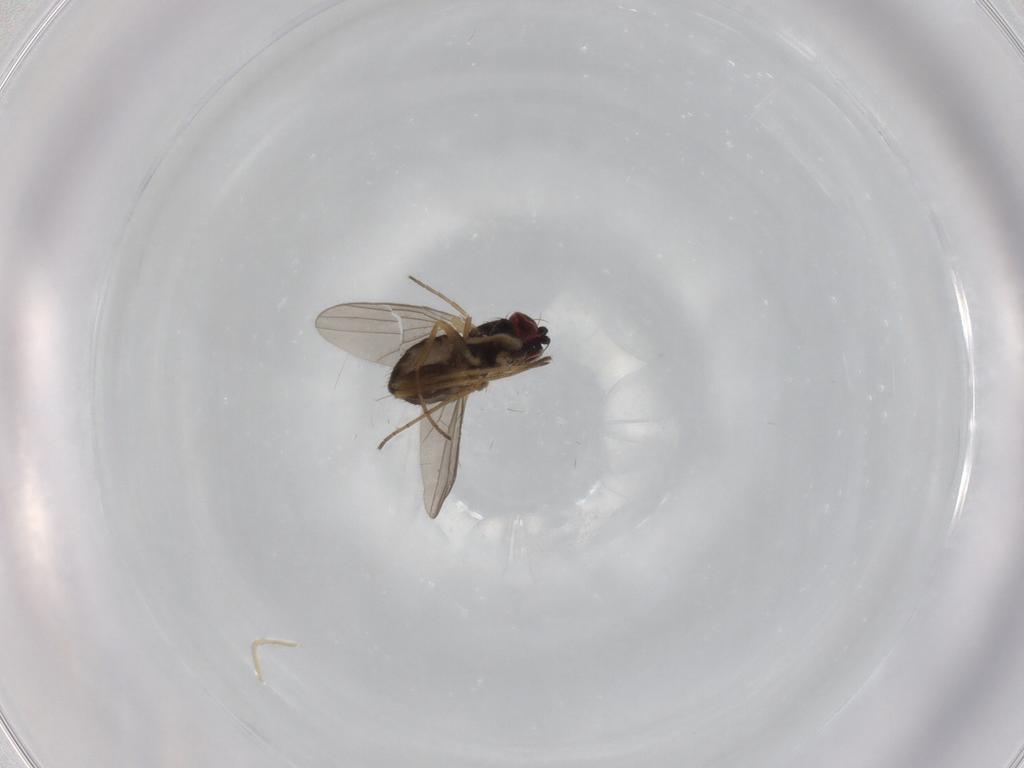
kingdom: Animalia
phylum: Arthropoda
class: Insecta
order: Diptera
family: Dolichopodidae
